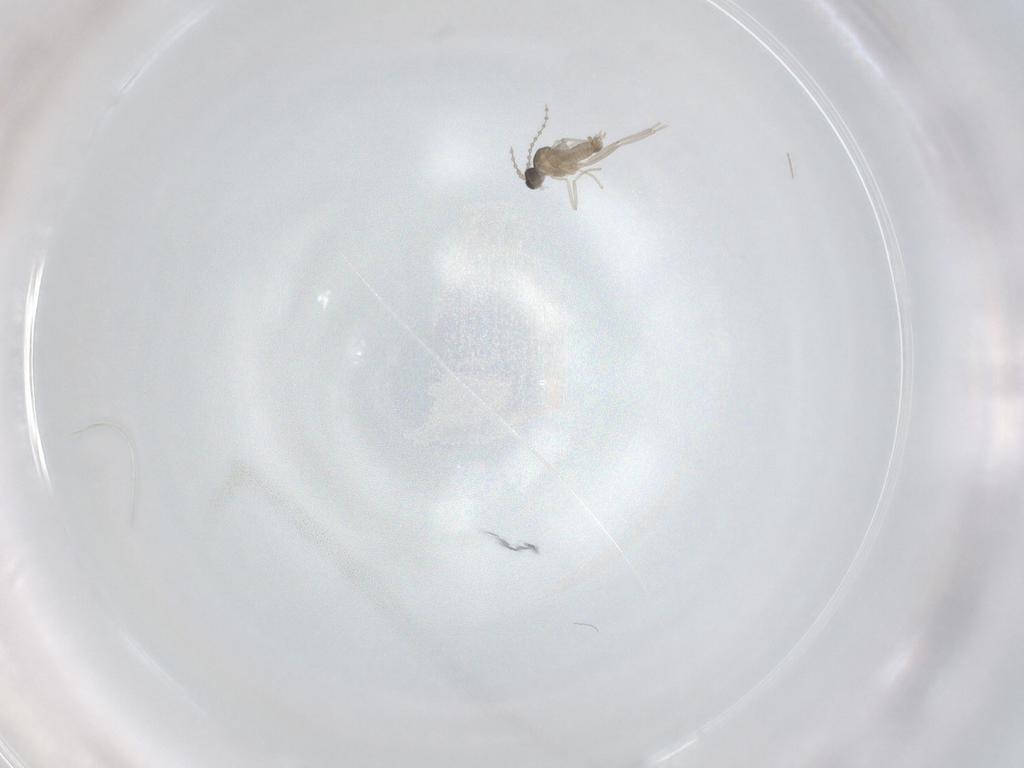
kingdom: Animalia
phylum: Arthropoda
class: Insecta
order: Diptera
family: Cecidomyiidae
